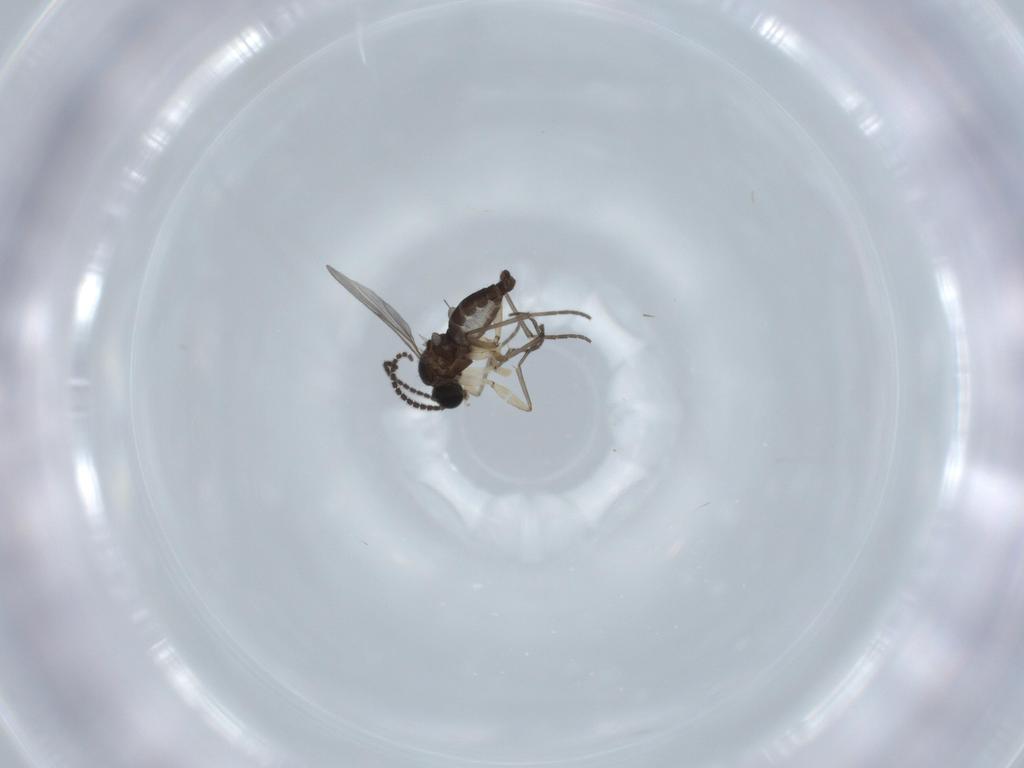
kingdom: Animalia
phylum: Arthropoda
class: Insecta
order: Diptera
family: Sciaridae
